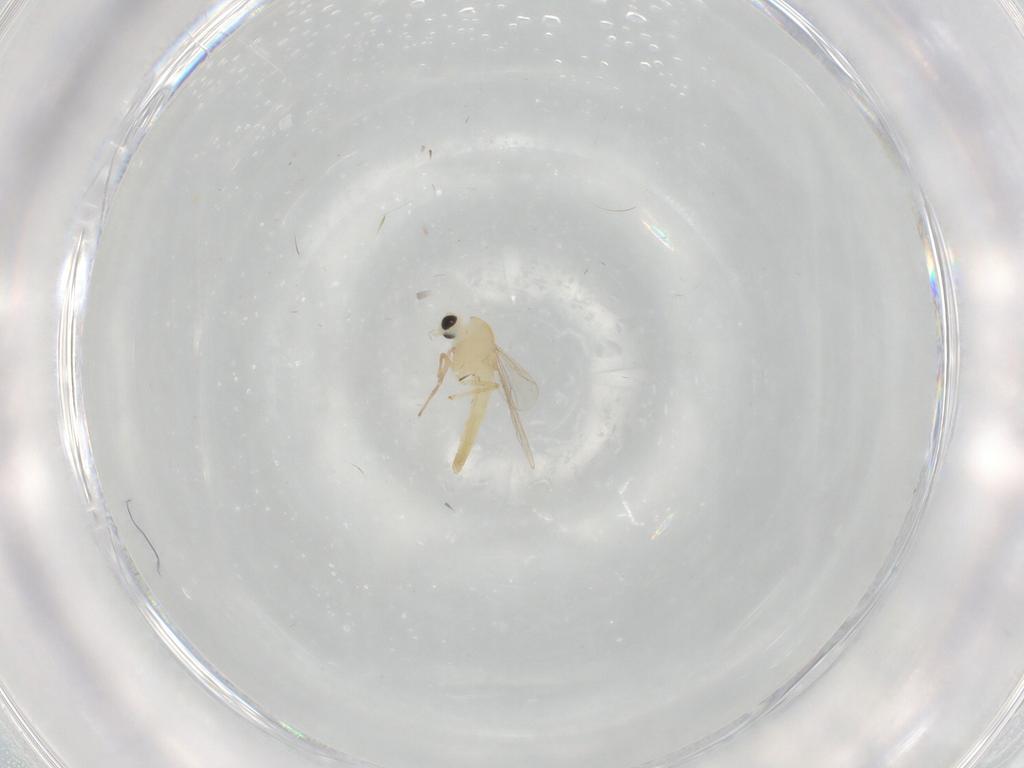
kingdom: Animalia
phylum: Arthropoda
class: Insecta
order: Diptera
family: Chironomidae
